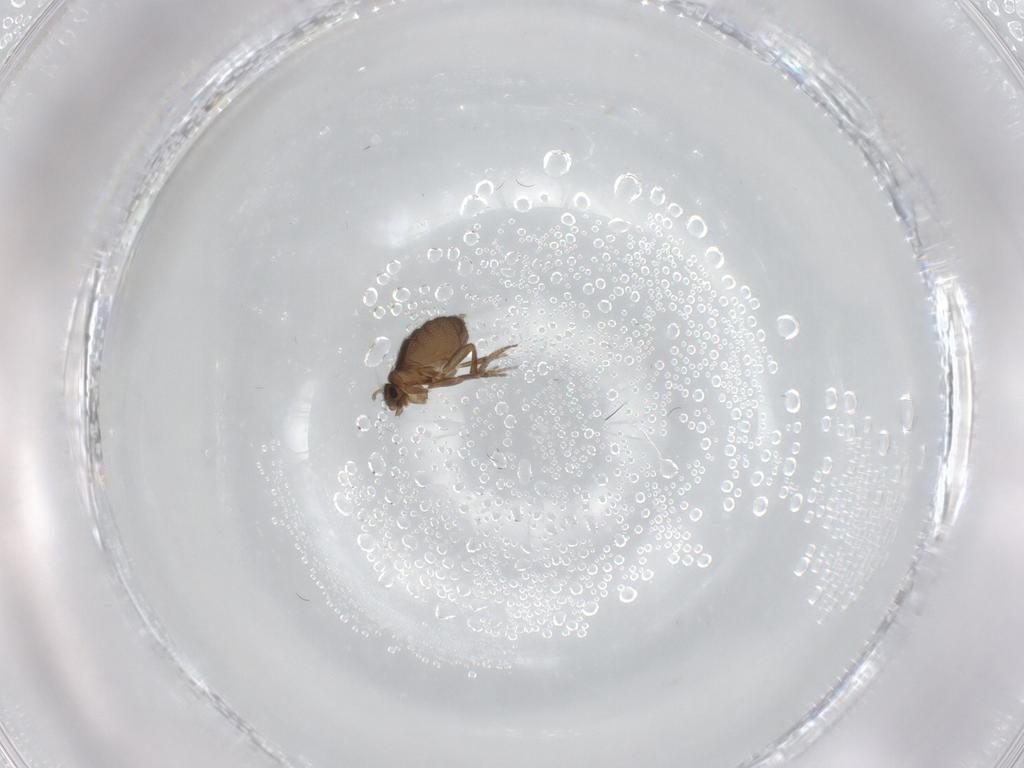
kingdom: Animalia
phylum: Arthropoda
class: Insecta
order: Diptera
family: Phoridae
